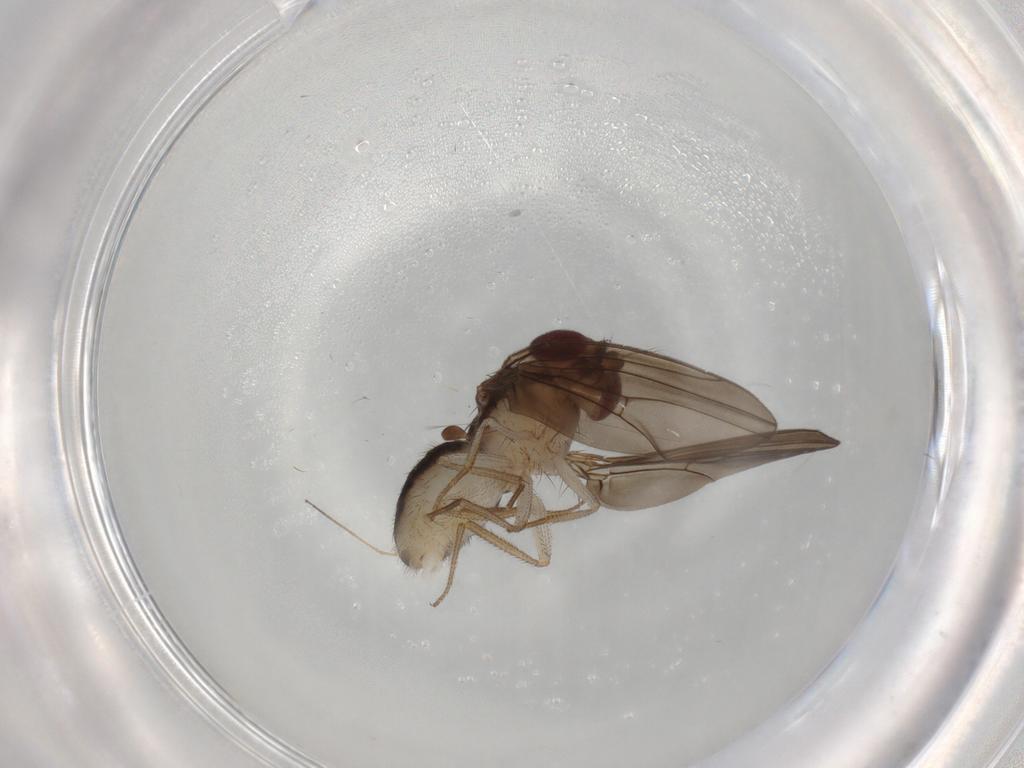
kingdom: Animalia
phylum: Arthropoda
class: Insecta
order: Diptera
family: Drosophilidae
